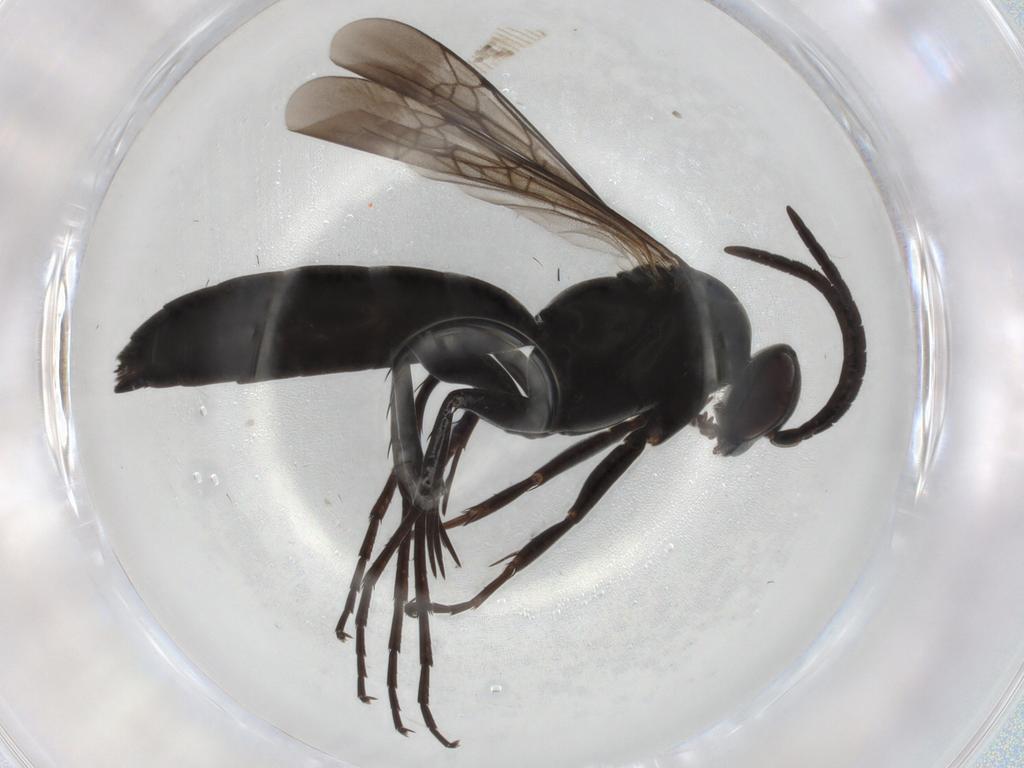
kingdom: Animalia
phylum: Arthropoda
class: Insecta
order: Hymenoptera
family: Pompilidae
